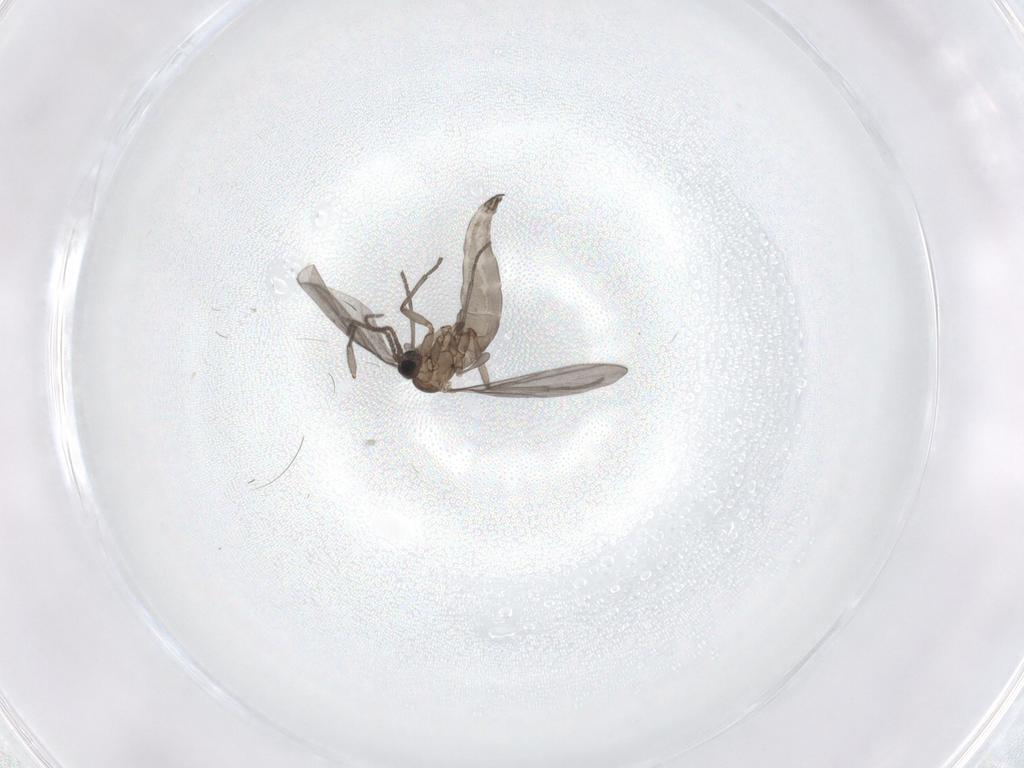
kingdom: Animalia
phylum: Arthropoda
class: Insecta
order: Diptera
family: Sciaridae
